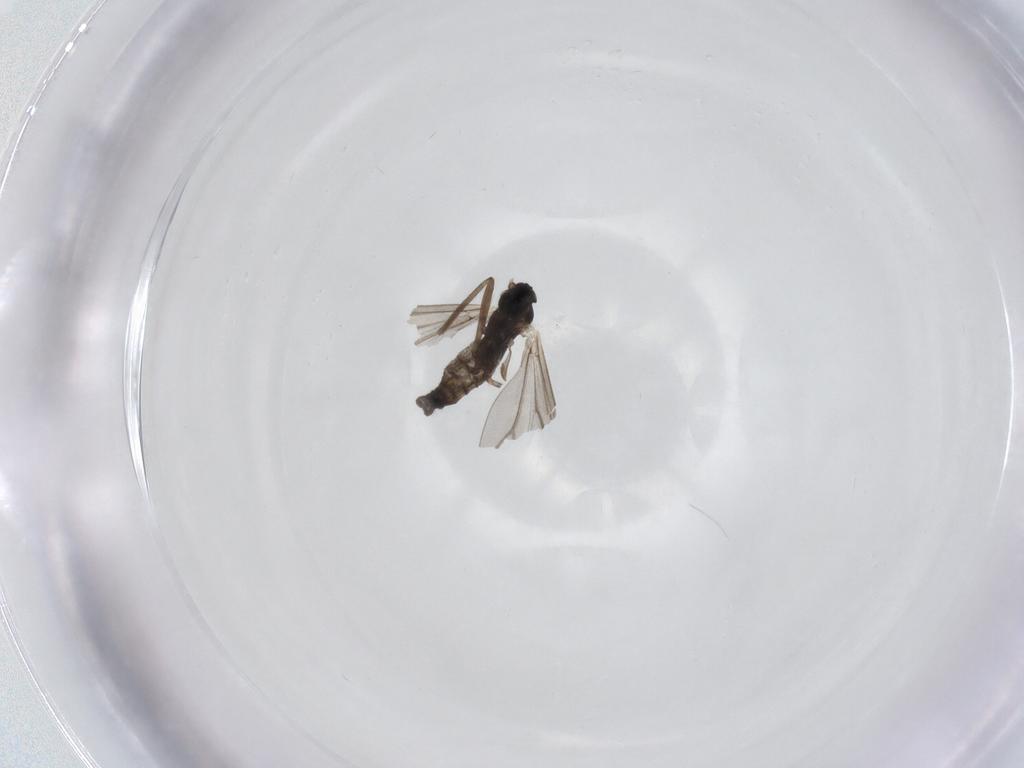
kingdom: Animalia
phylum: Arthropoda
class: Insecta
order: Diptera
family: Cecidomyiidae
